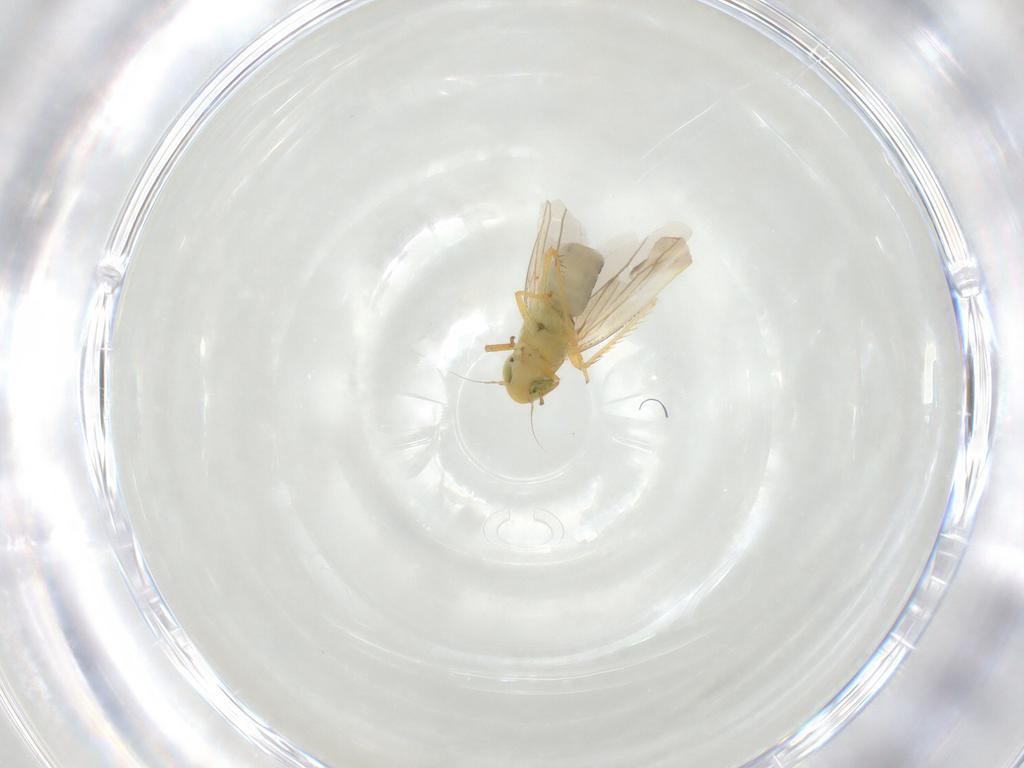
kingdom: Animalia
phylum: Arthropoda
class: Insecta
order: Hemiptera
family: Cicadellidae
